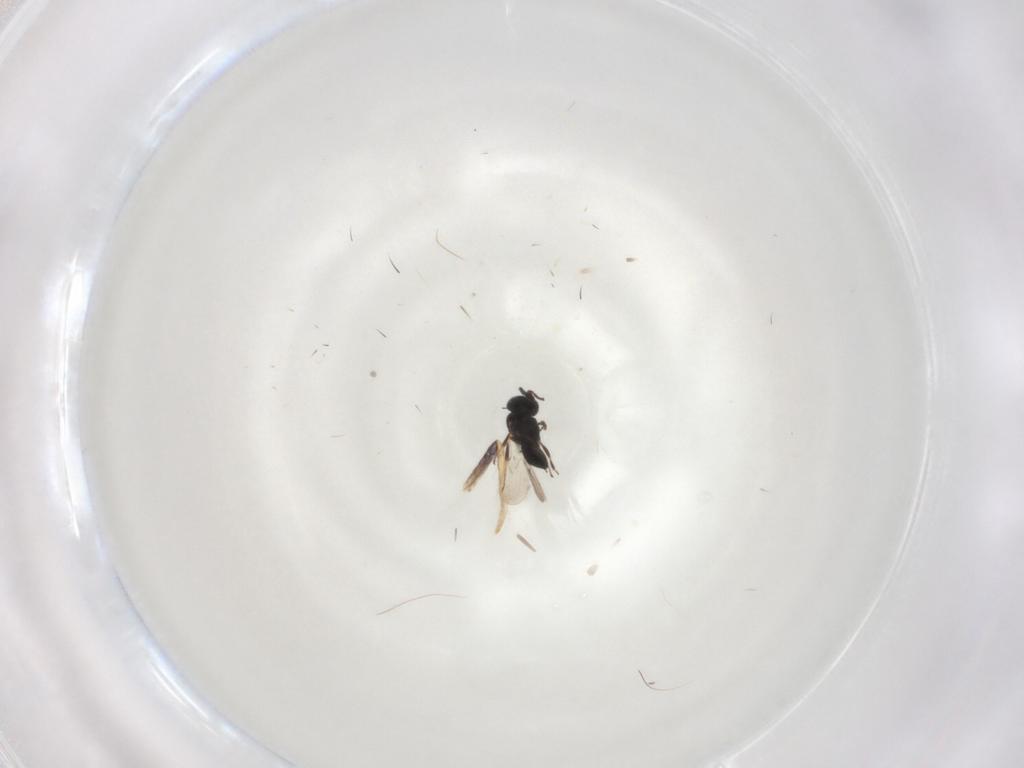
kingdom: Animalia
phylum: Arthropoda
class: Insecta
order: Hymenoptera
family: Scelionidae
